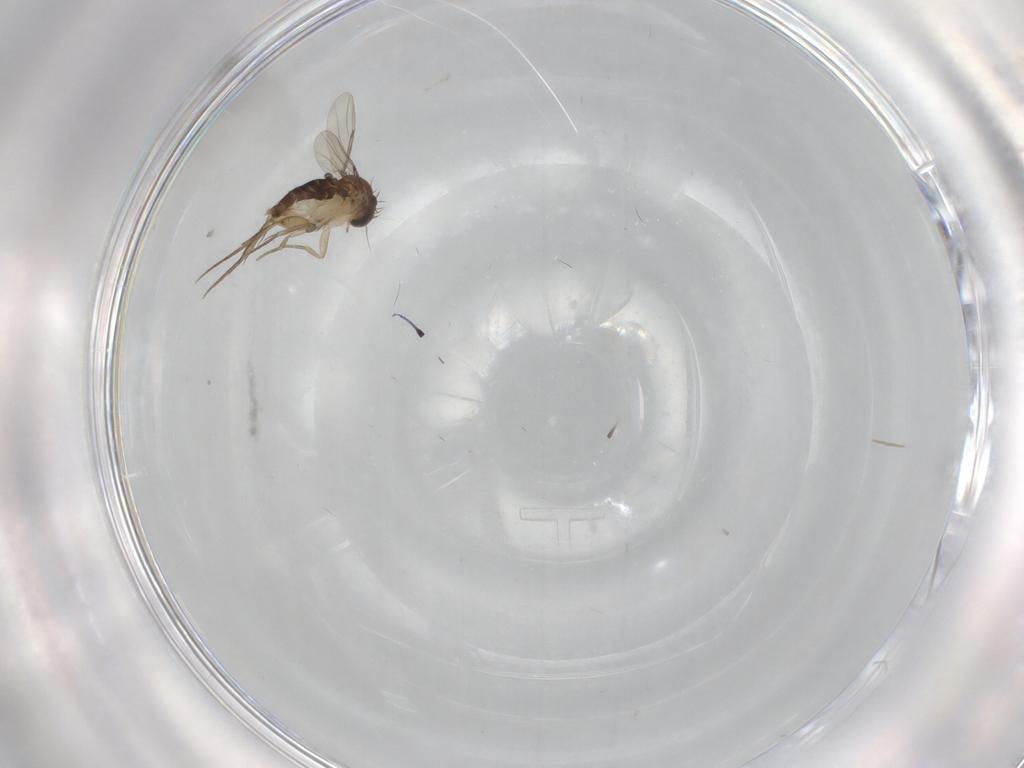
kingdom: Animalia
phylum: Arthropoda
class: Insecta
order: Diptera
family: Phoridae
